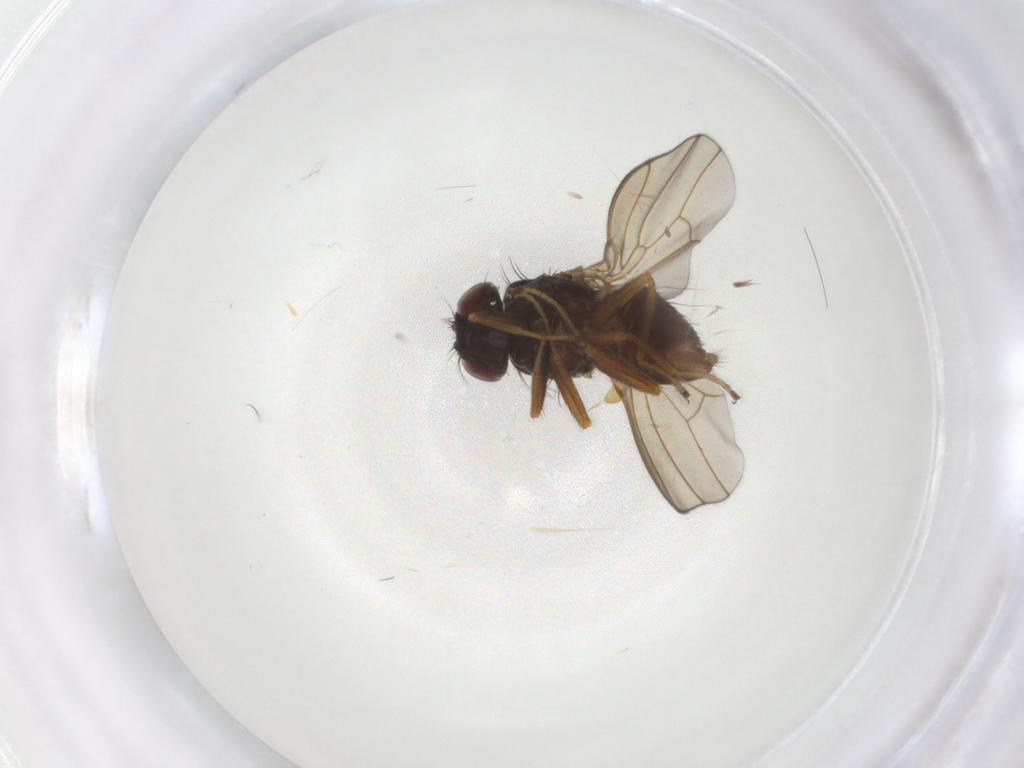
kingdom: Animalia
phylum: Arthropoda
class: Insecta
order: Diptera
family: Drosophilidae
